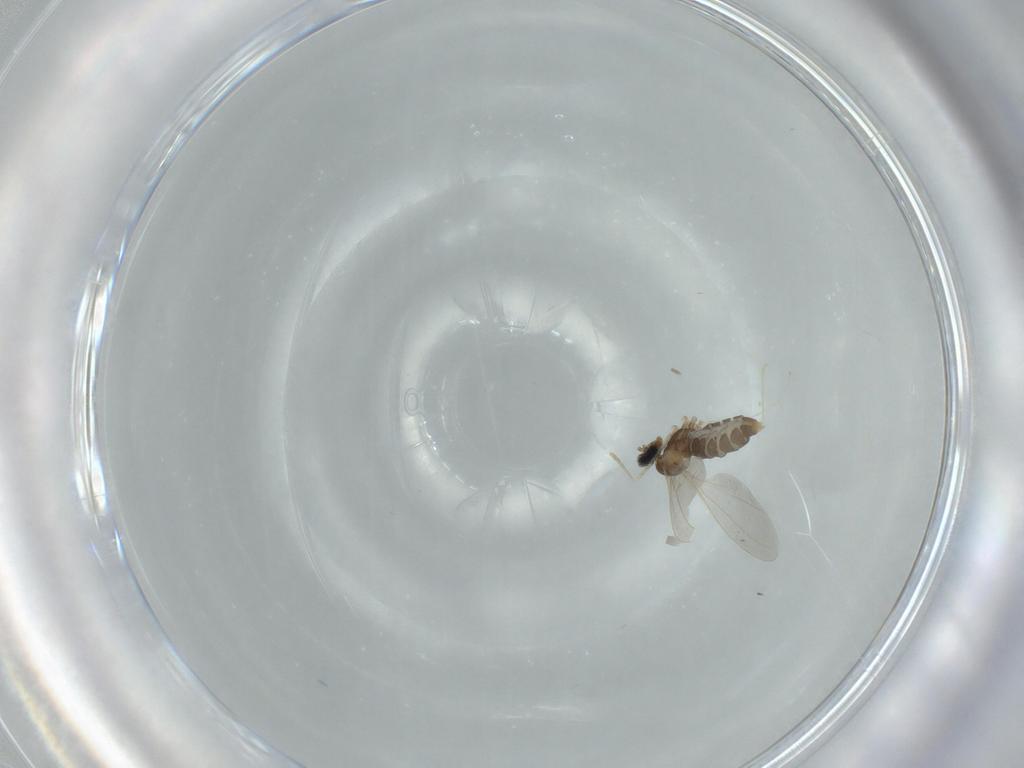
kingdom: Animalia
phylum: Arthropoda
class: Insecta
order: Diptera
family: Cecidomyiidae
